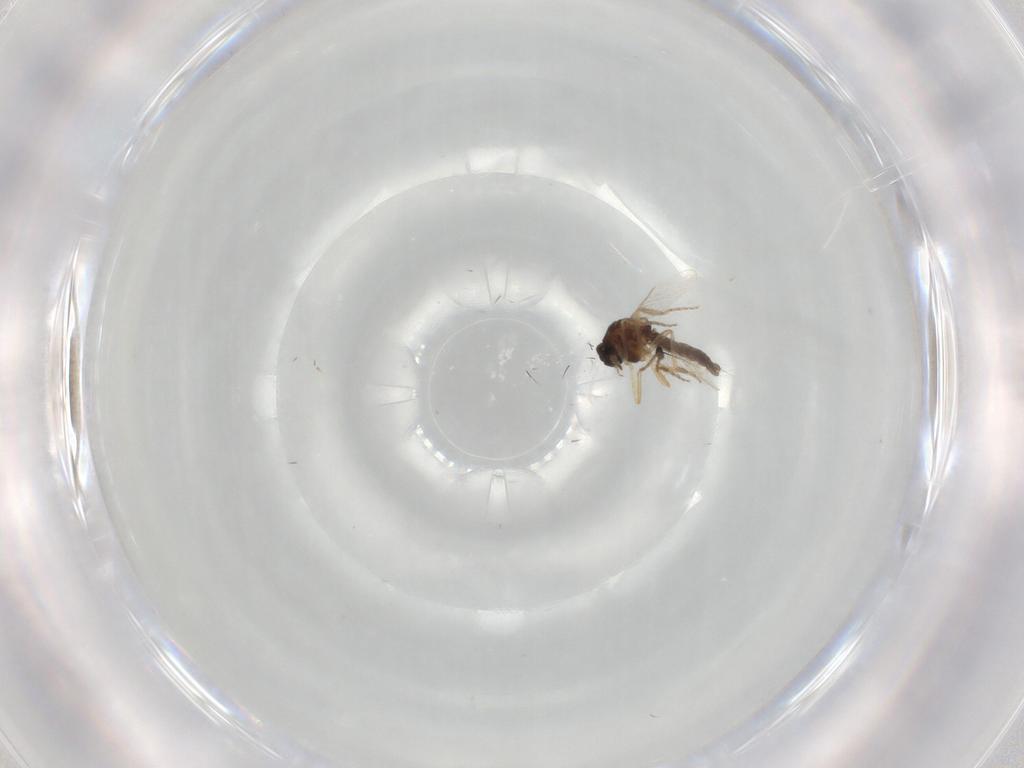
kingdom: Animalia
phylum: Arthropoda
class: Insecta
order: Diptera
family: Ceratopogonidae
